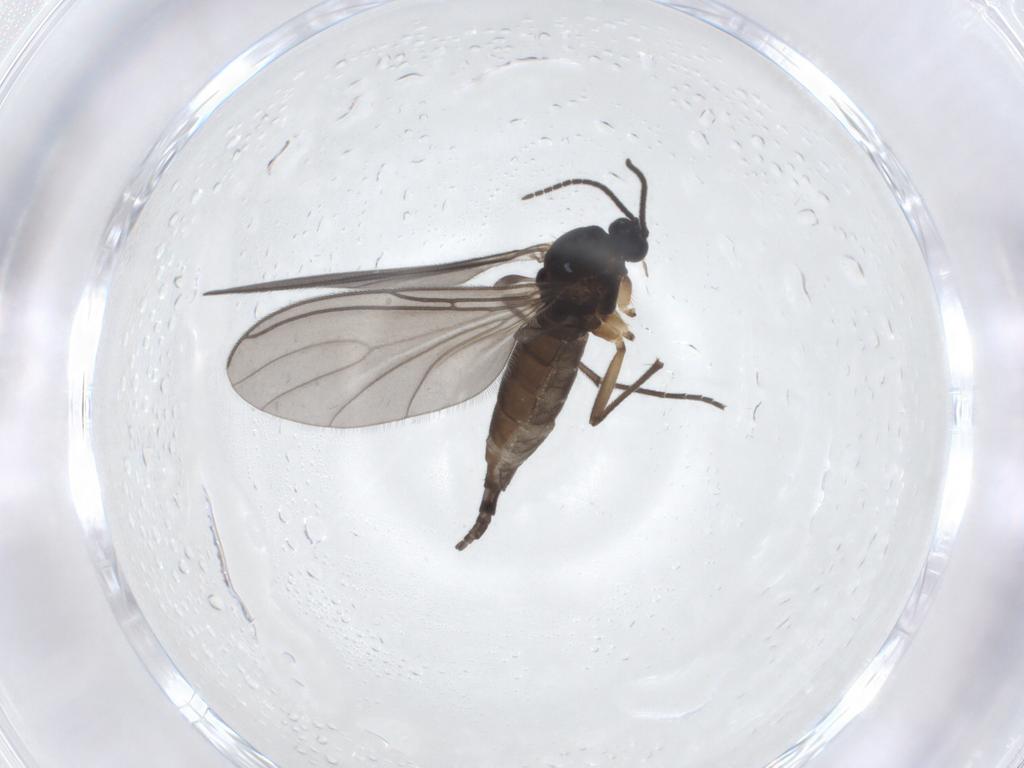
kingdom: Animalia
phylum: Arthropoda
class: Insecta
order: Diptera
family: Sciaridae
